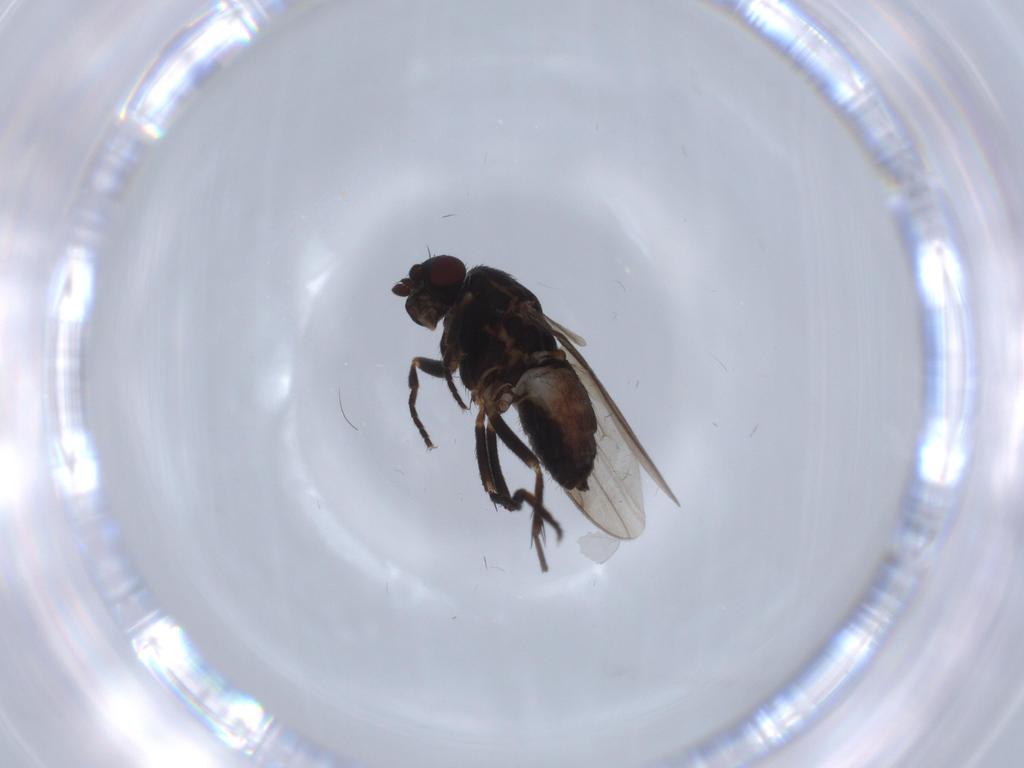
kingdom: Animalia
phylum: Arthropoda
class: Insecta
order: Diptera
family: Sphaeroceridae
